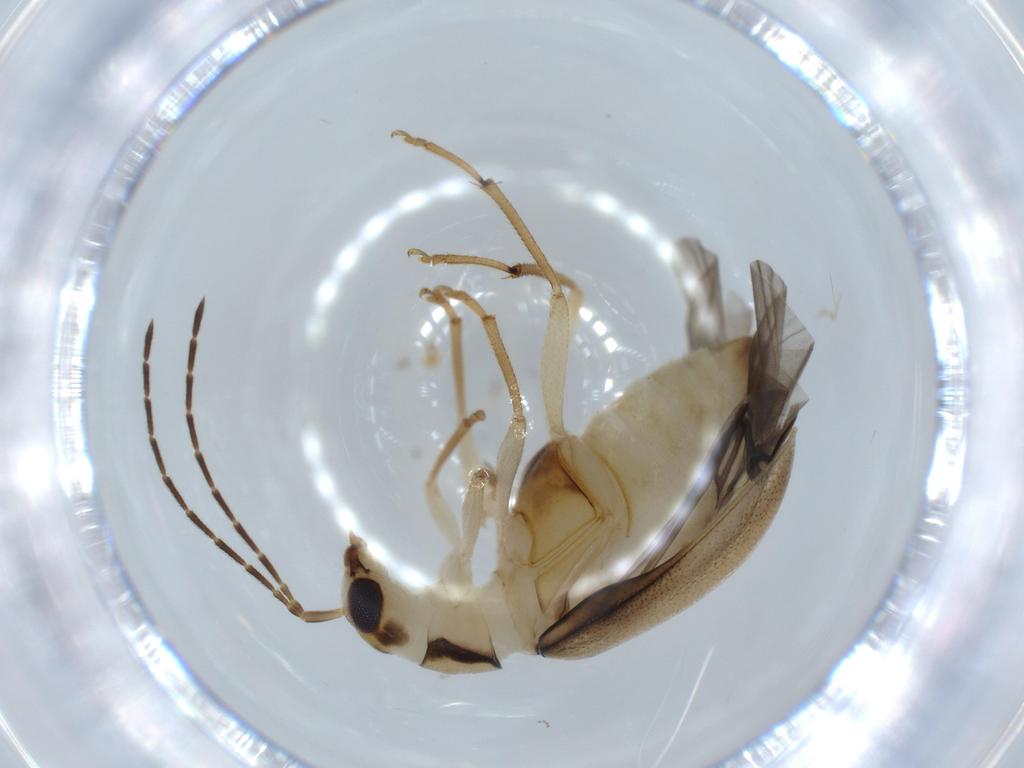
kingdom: Animalia
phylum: Arthropoda
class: Insecta
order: Coleoptera
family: Chrysomelidae
